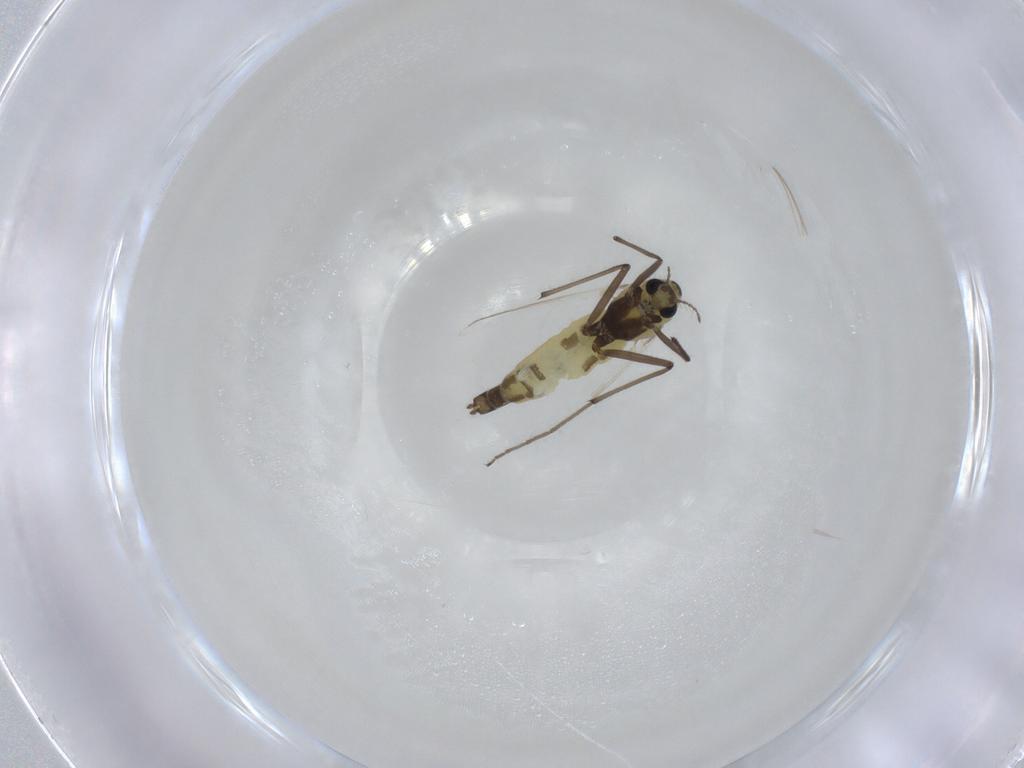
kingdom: Animalia
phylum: Arthropoda
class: Insecta
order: Diptera
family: Chironomidae
